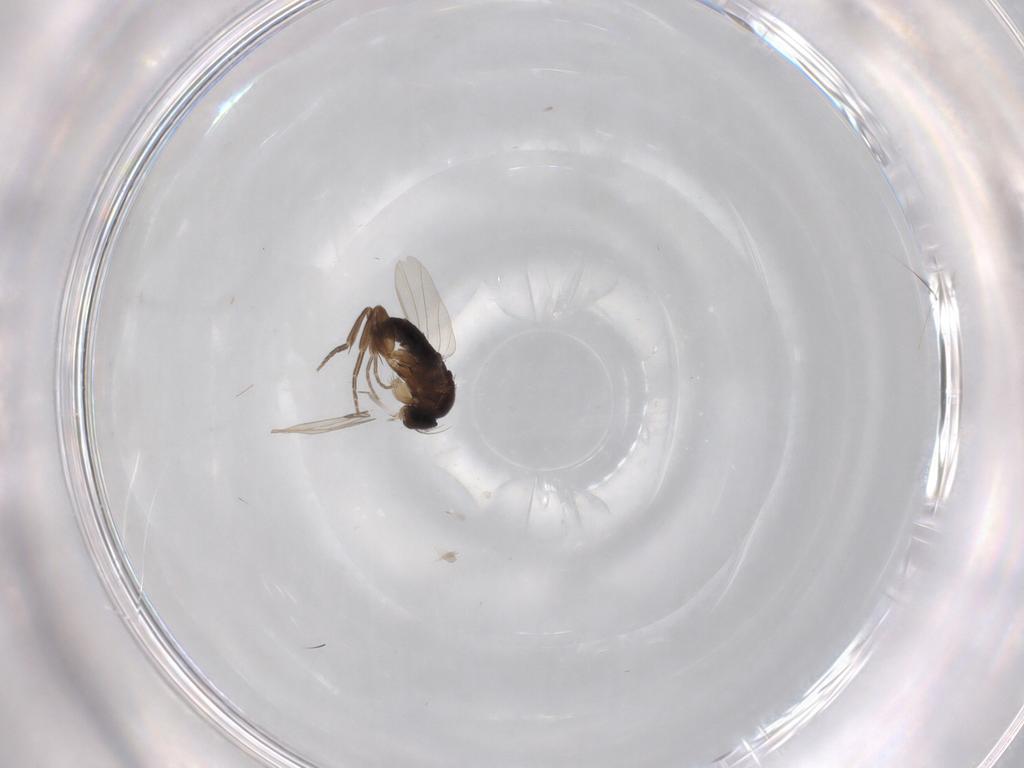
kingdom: Animalia
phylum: Arthropoda
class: Insecta
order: Diptera
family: Phoridae
